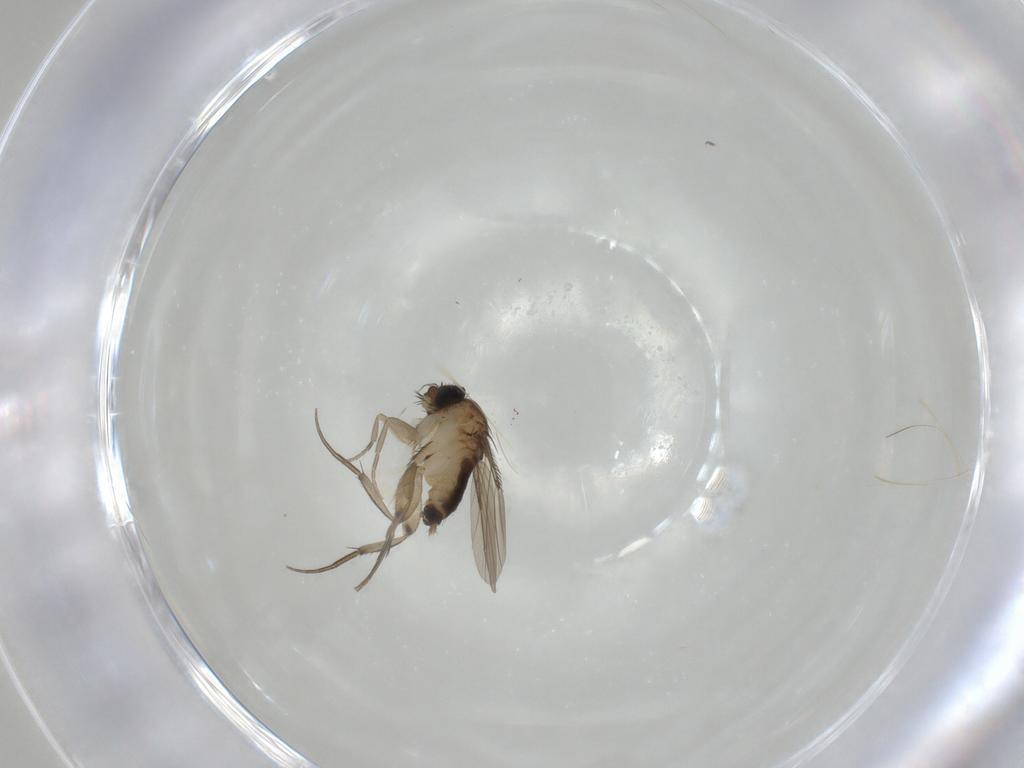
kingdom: Animalia
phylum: Arthropoda
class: Insecta
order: Diptera
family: Phoridae
